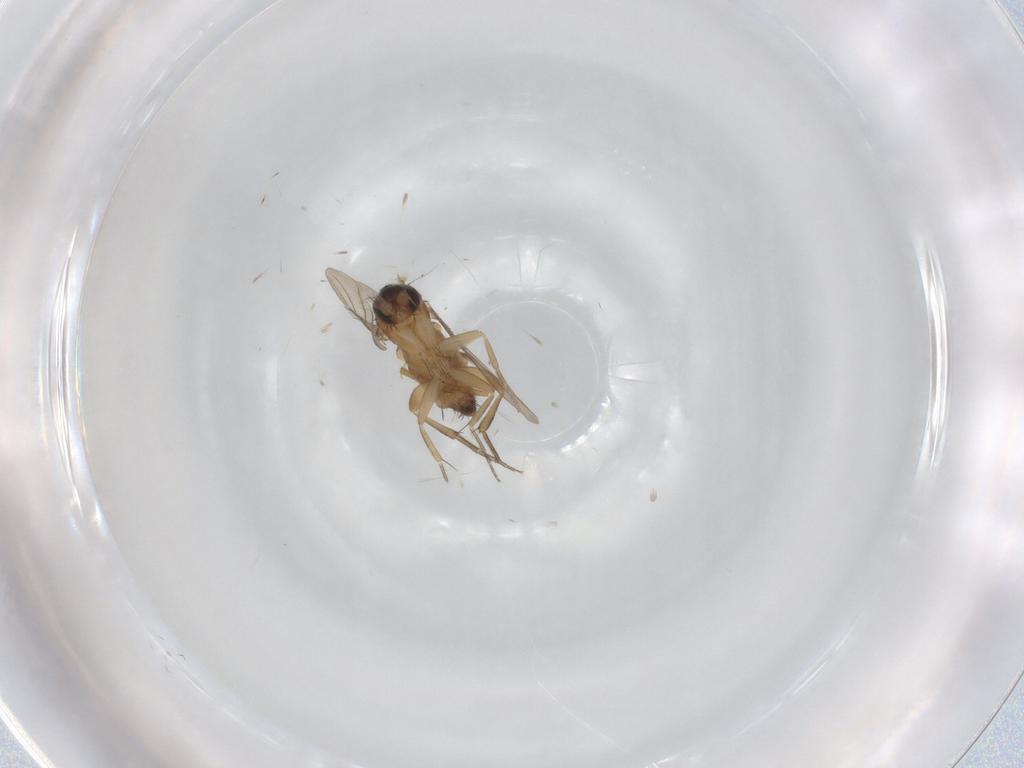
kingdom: Animalia
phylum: Arthropoda
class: Insecta
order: Diptera
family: Phoridae
